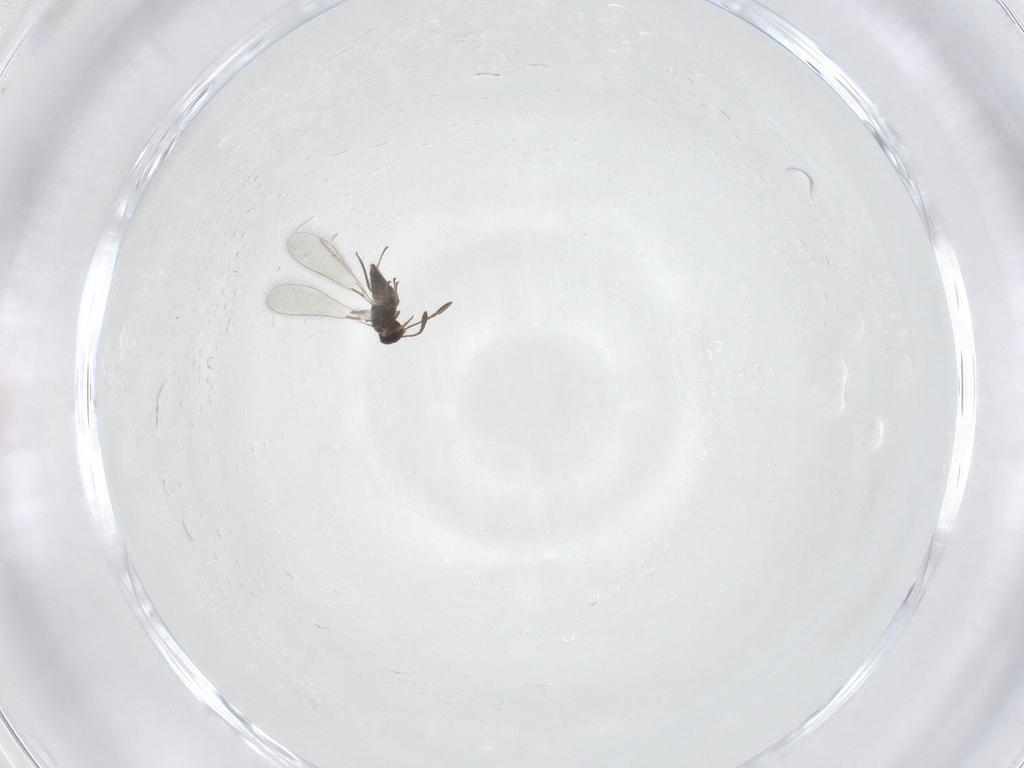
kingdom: Animalia
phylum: Arthropoda
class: Insecta
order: Hymenoptera
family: Mymaridae
